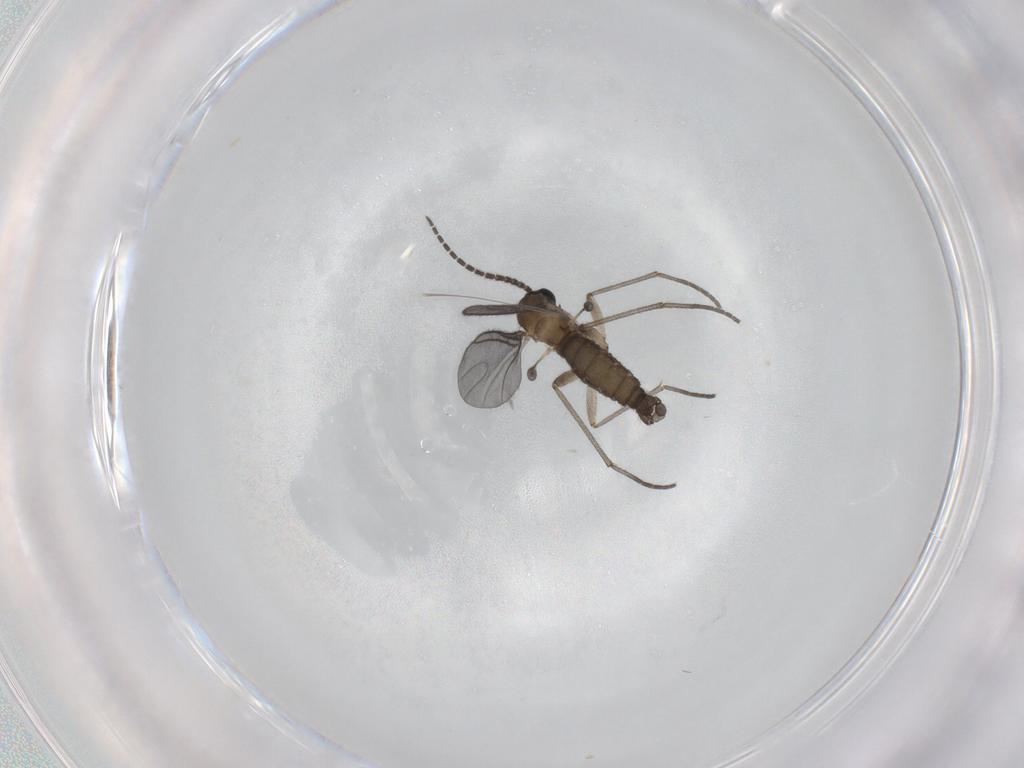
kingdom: Animalia
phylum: Arthropoda
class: Insecta
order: Diptera
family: Sciaridae
